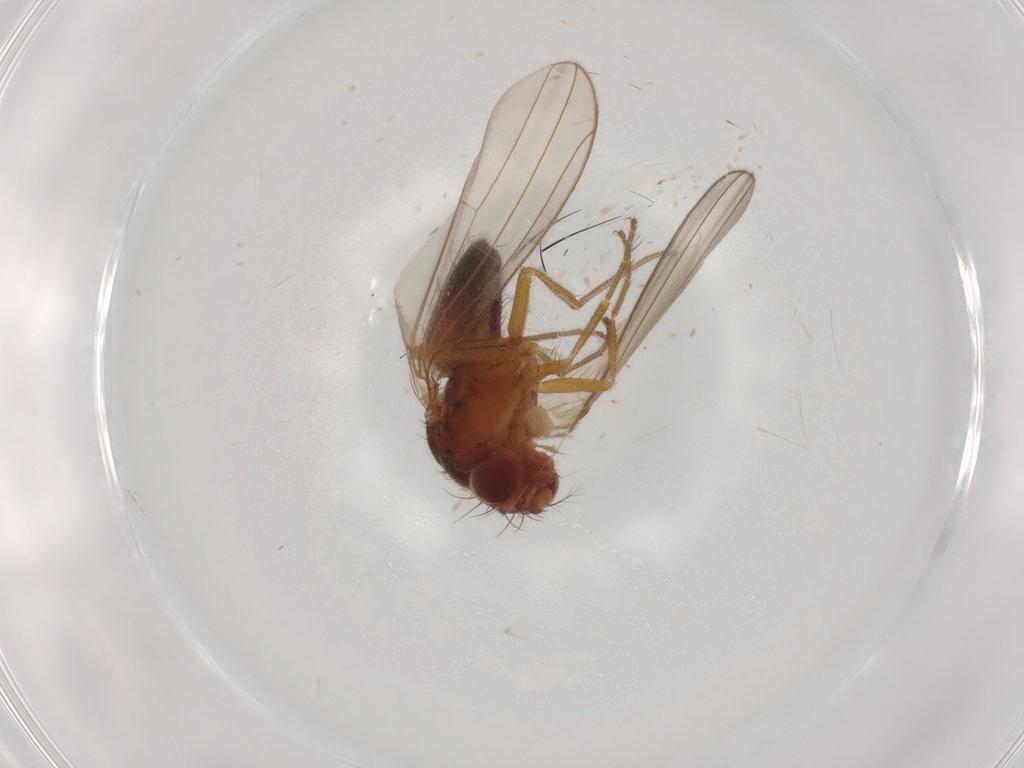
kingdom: Animalia
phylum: Arthropoda
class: Insecta
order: Diptera
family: Drosophilidae
